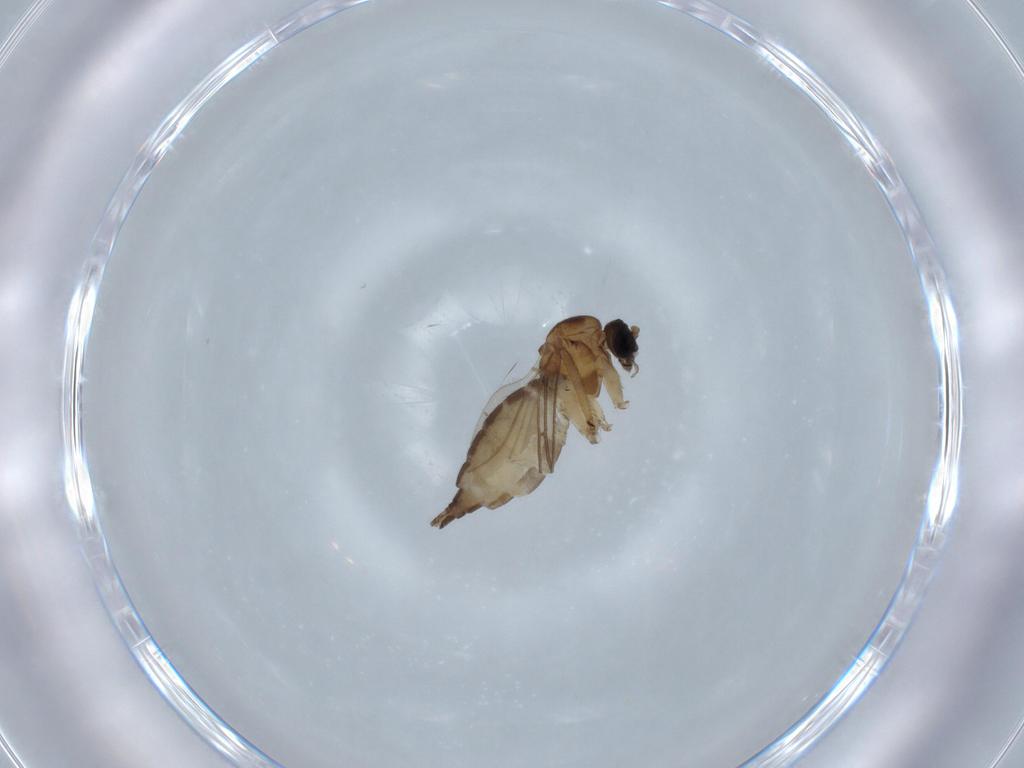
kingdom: Animalia
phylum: Arthropoda
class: Insecta
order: Diptera
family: Sciaridae
